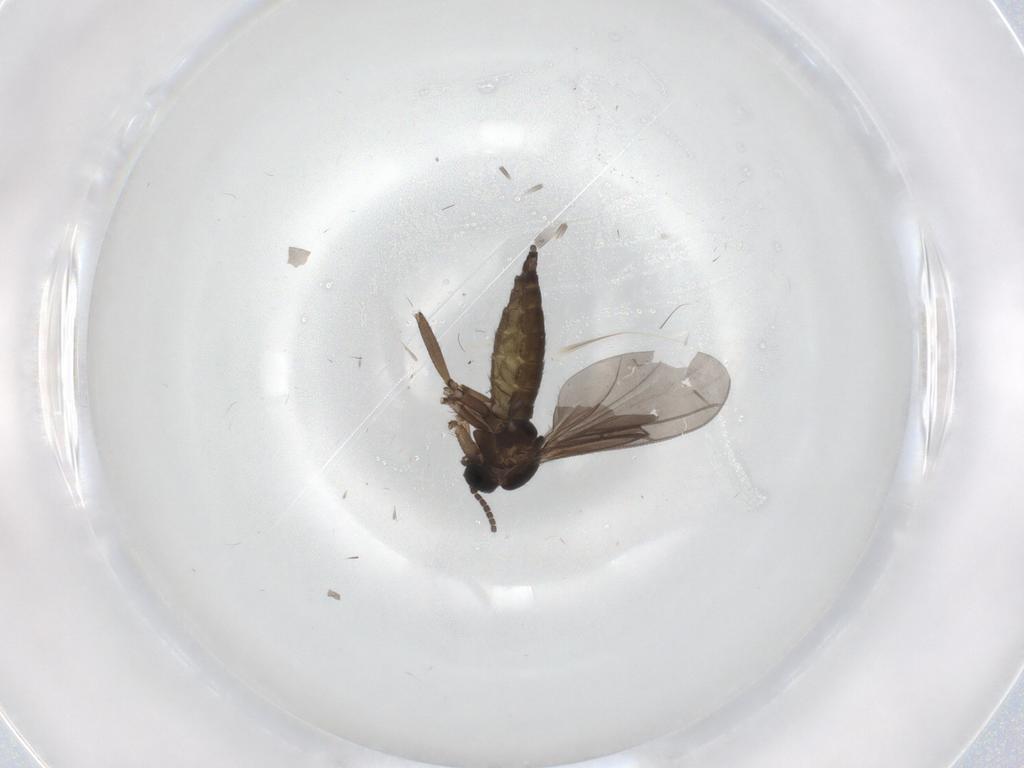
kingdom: Animalia
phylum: Arthropoda
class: Insecta
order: Diptera
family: Sciaridae
